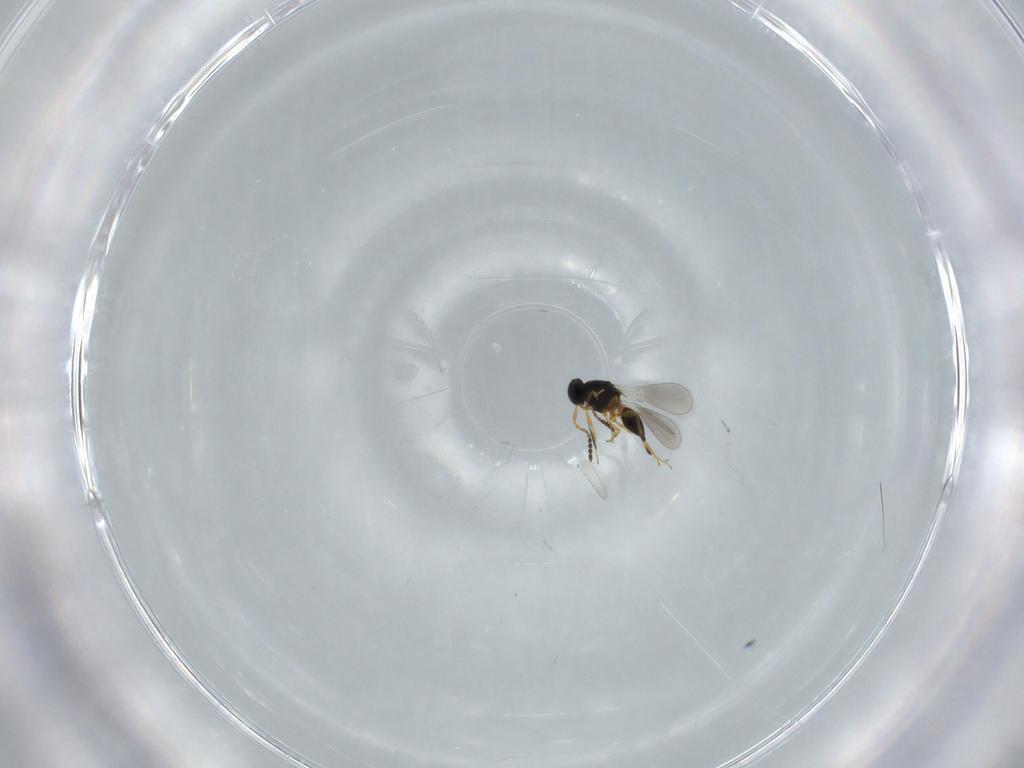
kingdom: Animalia
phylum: Arthropoda
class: Insecta
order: Hymenoptera
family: Platygastridae
